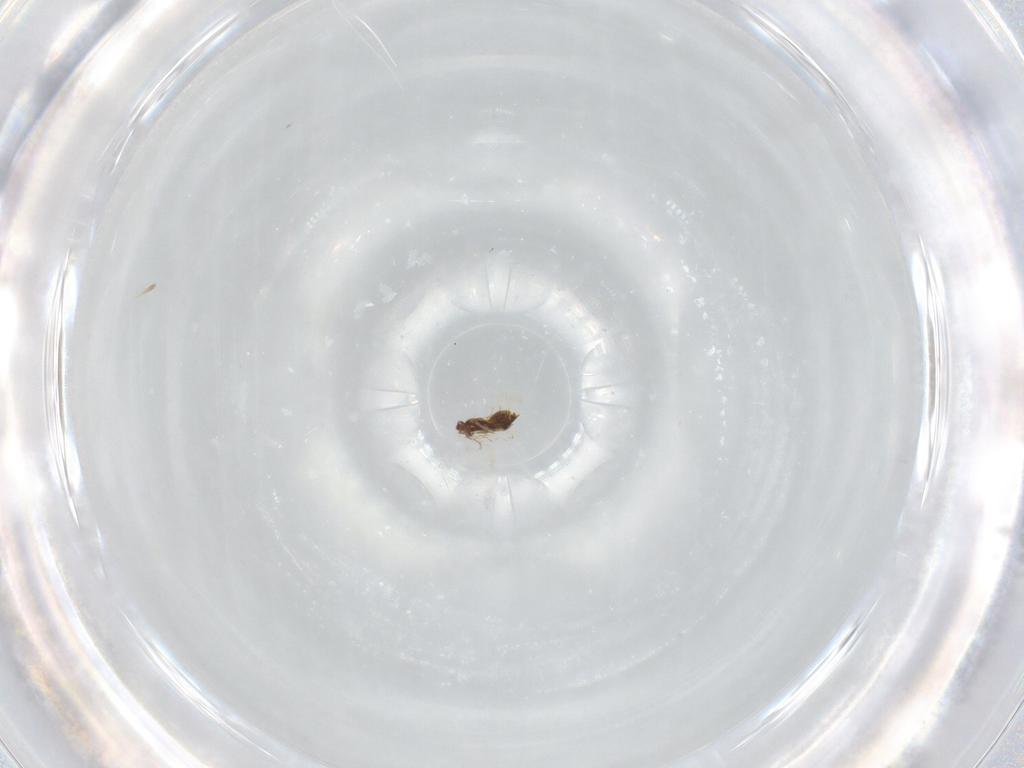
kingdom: Animalia
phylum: Arthropoda
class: Insecta
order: Hymenoptera
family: Trichogrammatidae
